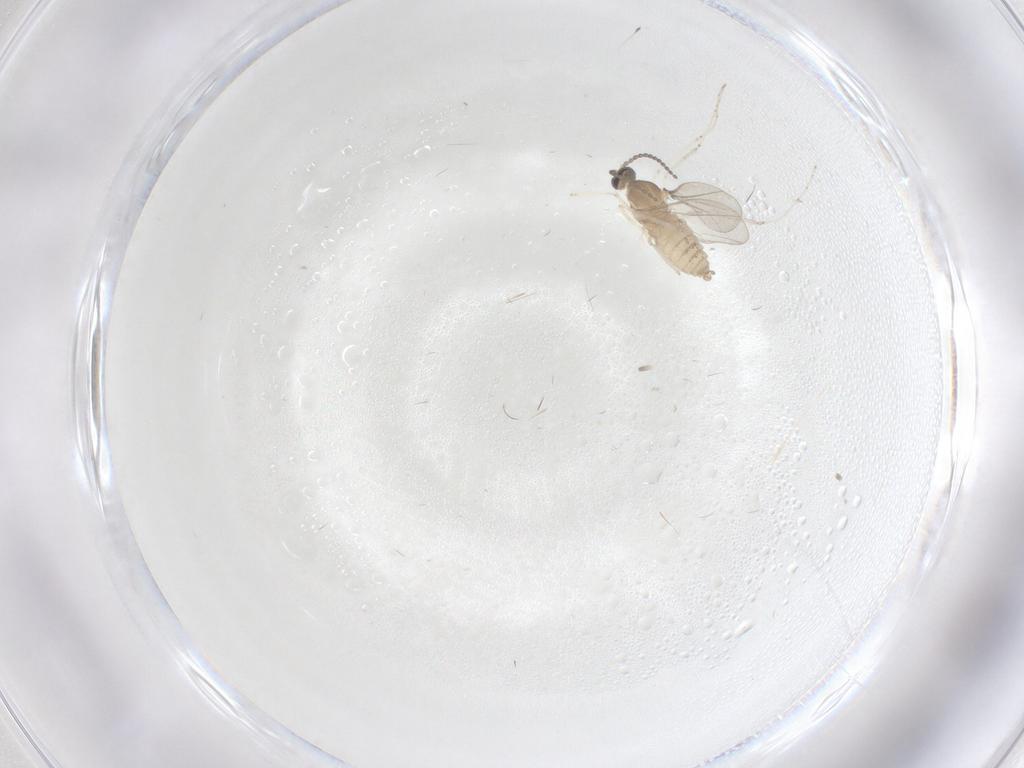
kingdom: Animalia
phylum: Arthropoda
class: Insecta
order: Diptera
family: Cecidomyiidae
